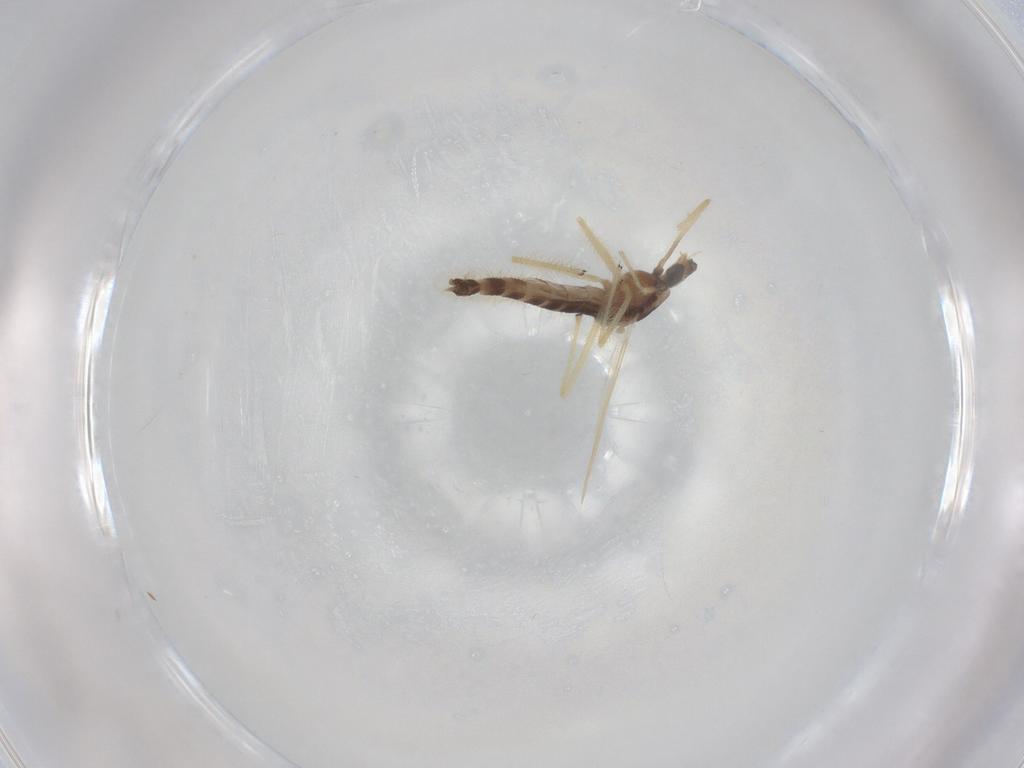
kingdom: Animalia
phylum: Arthropoda
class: Insecta
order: Diptera
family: Chironomidae
